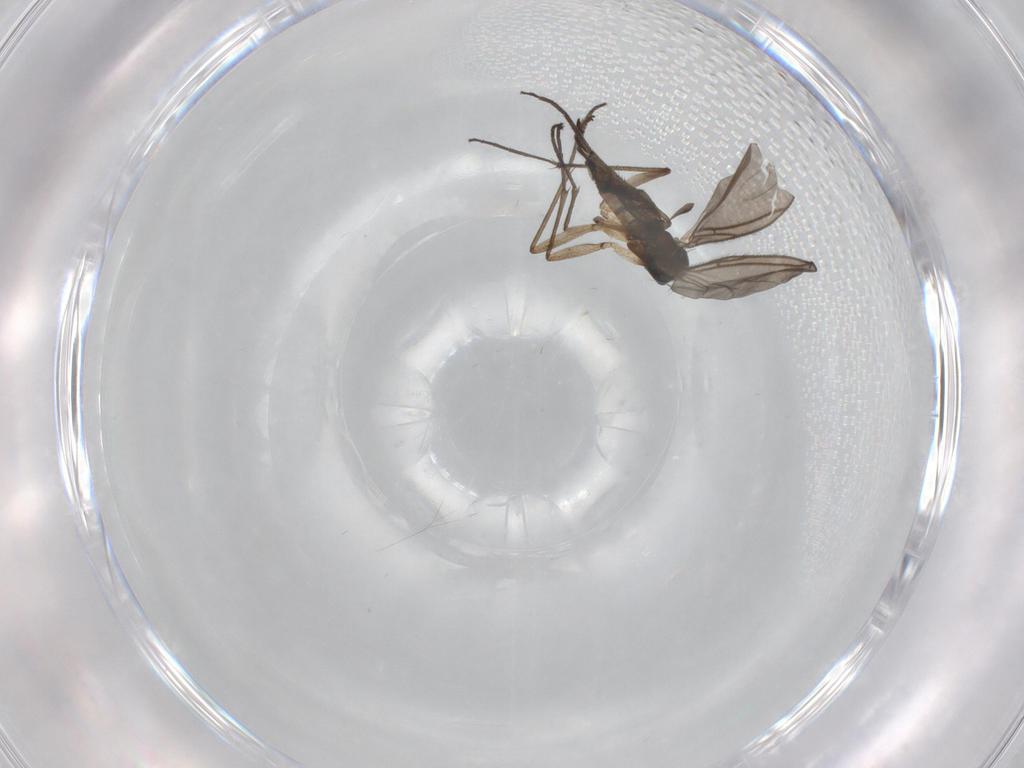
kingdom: Animalia
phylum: Arthropoda
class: Insecta
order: Diptera
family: Sciaridae
